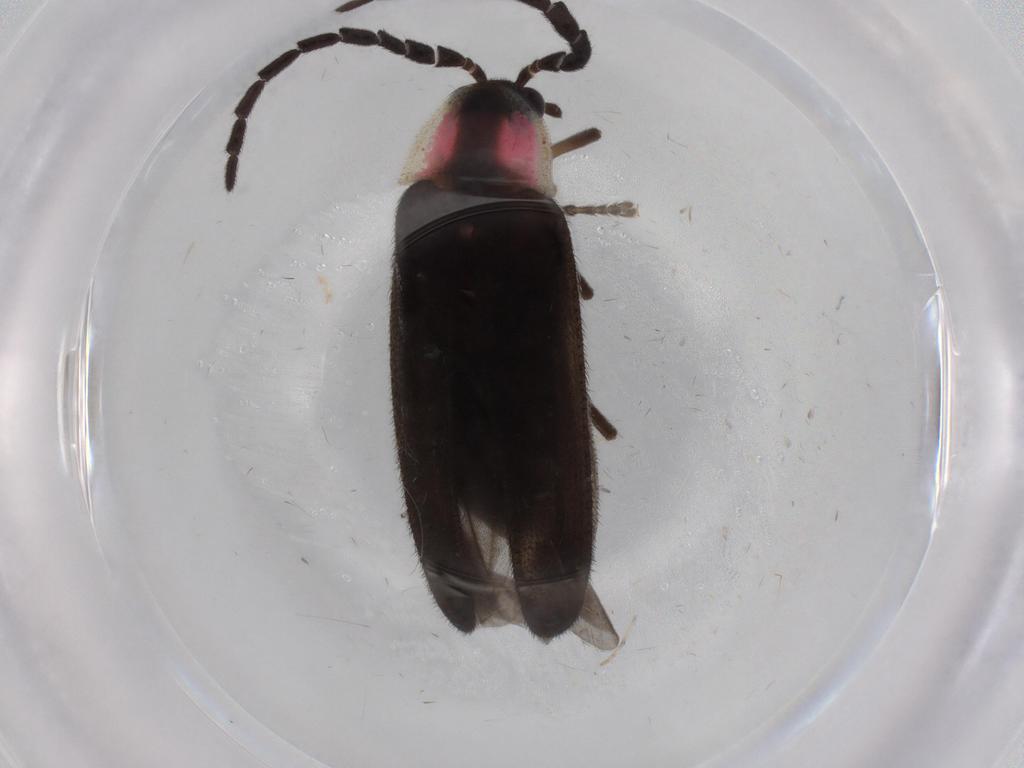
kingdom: Animalia
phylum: Arthropoda
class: Insecta
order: Coleoptera
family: Lampyridae
